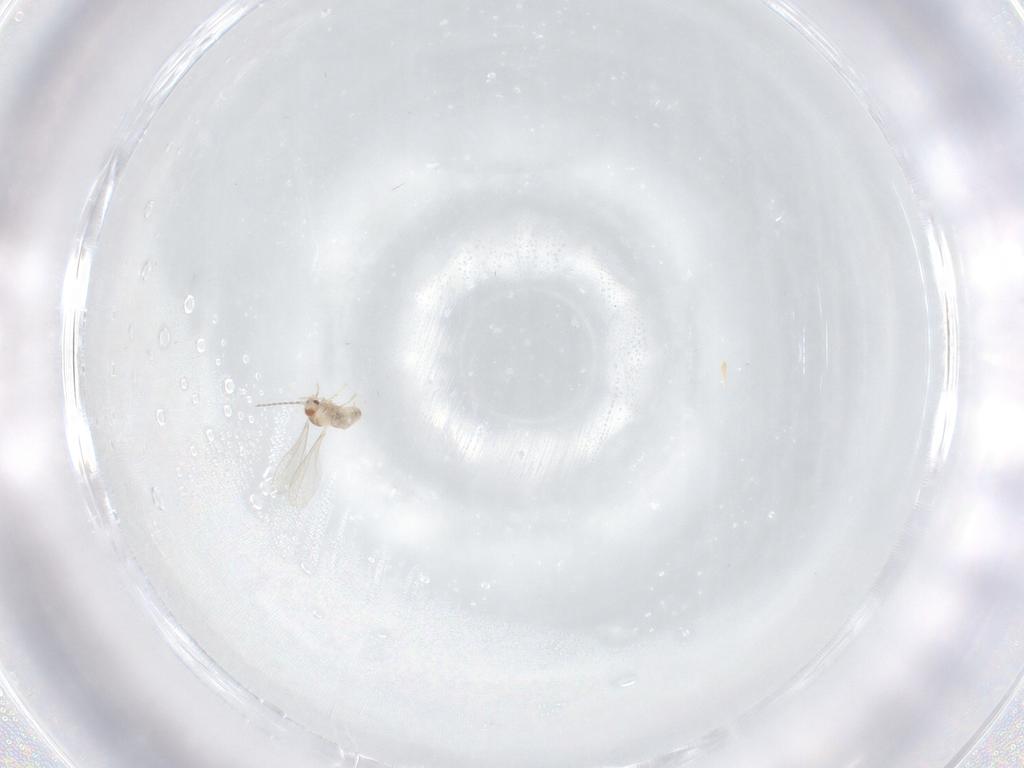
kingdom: Animalia
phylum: Arthropoda
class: Insecta
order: Diptera
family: Cecidomyiidae
